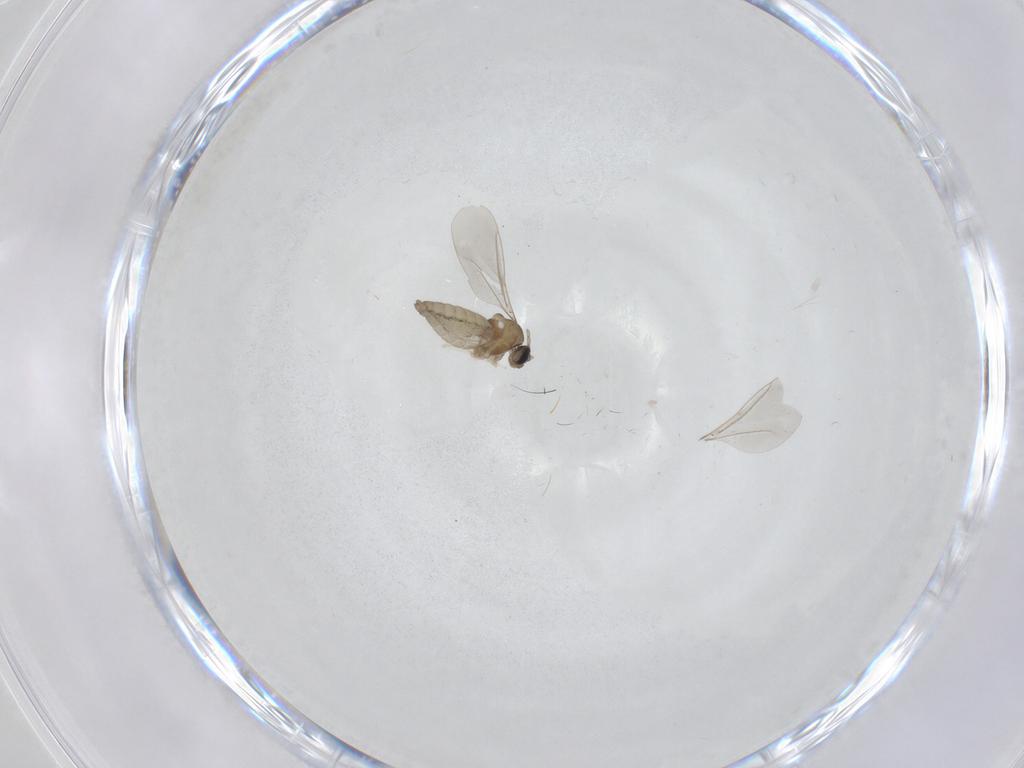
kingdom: Animalia
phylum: Arthropoda
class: Insecta
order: Diptera
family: Cecidomyiidae
